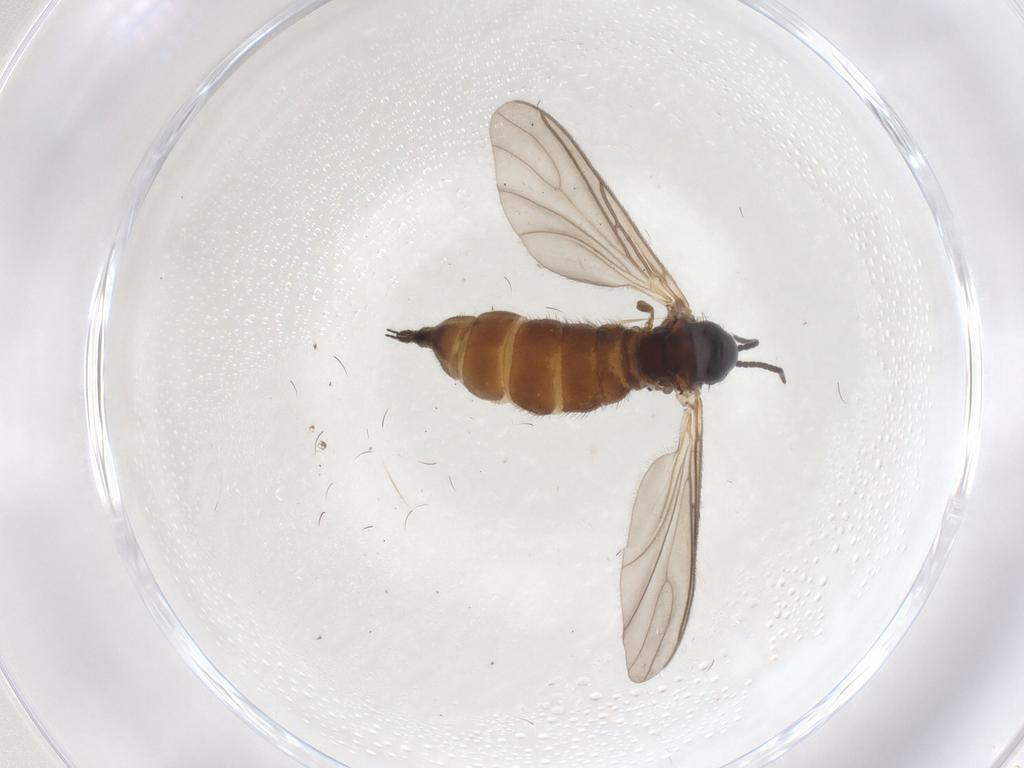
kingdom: Animalia
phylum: Arthropoda
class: Insecta
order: Diptera
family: Sciaridae
